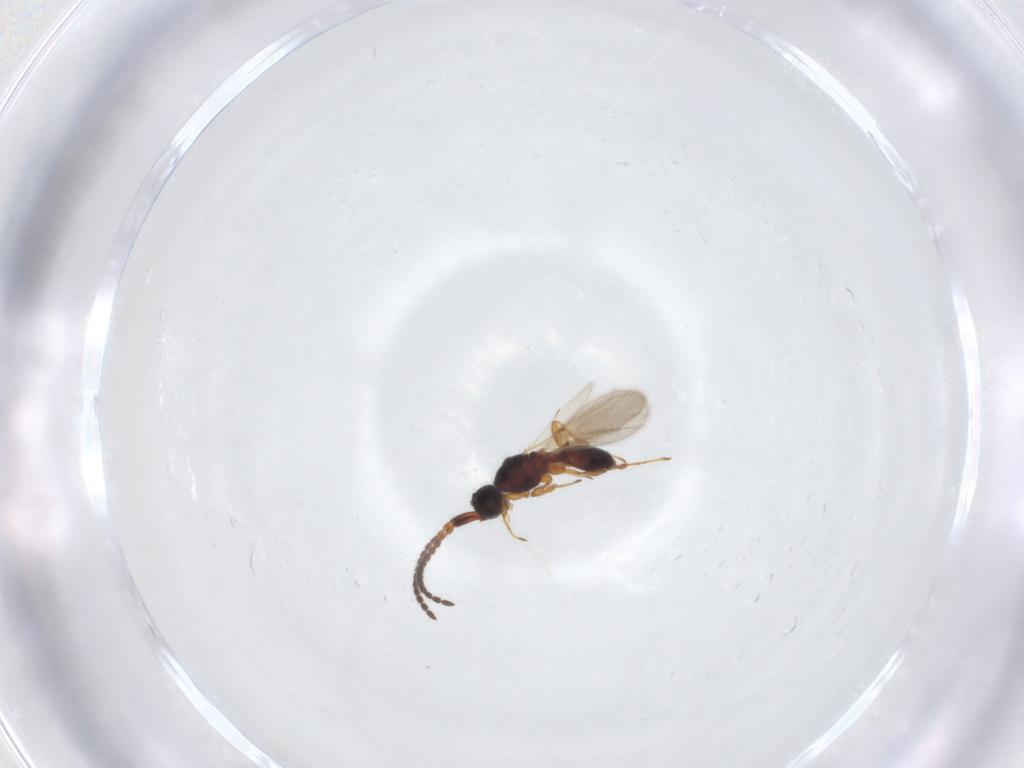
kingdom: Animalia
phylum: Arthropoda
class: Insecta
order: Hymenoptera
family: Diapriidae
